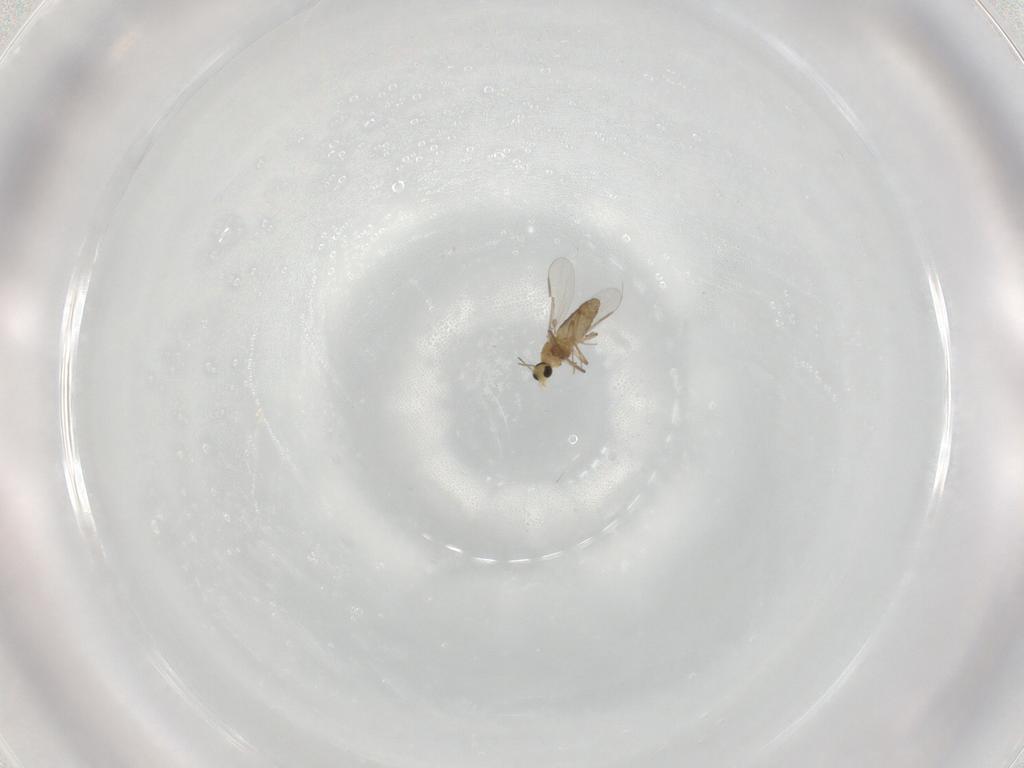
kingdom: Animalia
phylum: Arthropoda
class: Insecta
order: Diptera
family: Chironomidae
